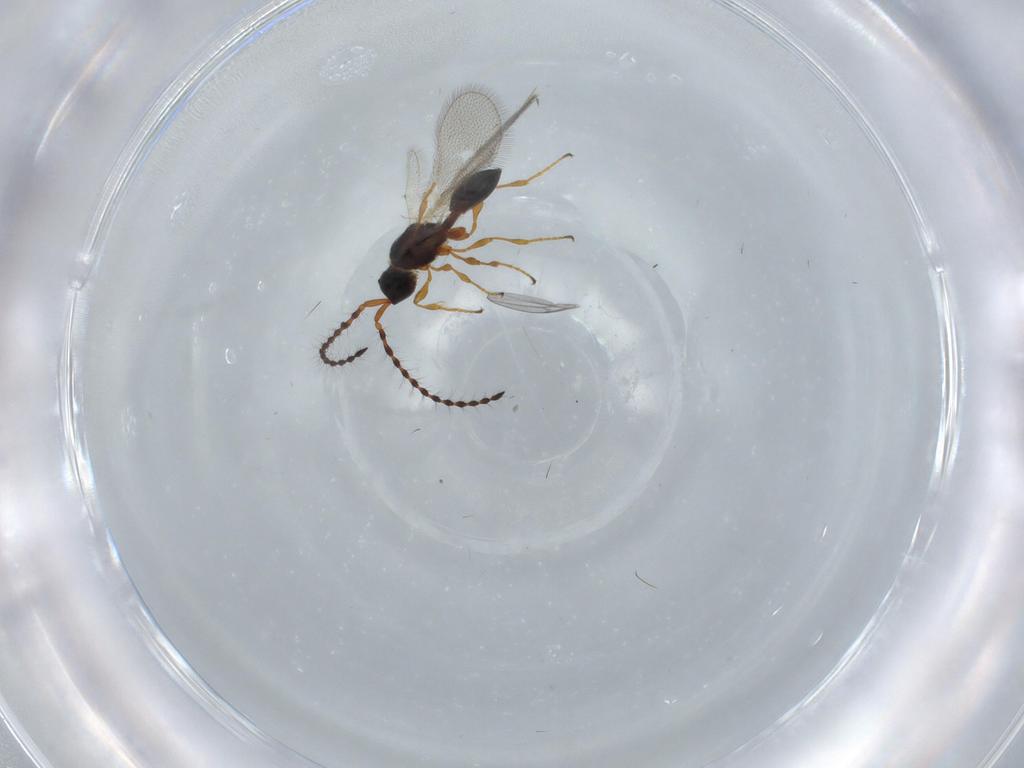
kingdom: Animalia
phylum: Arthropoda
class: Insecta
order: Hymenoptera
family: Diapriidae
